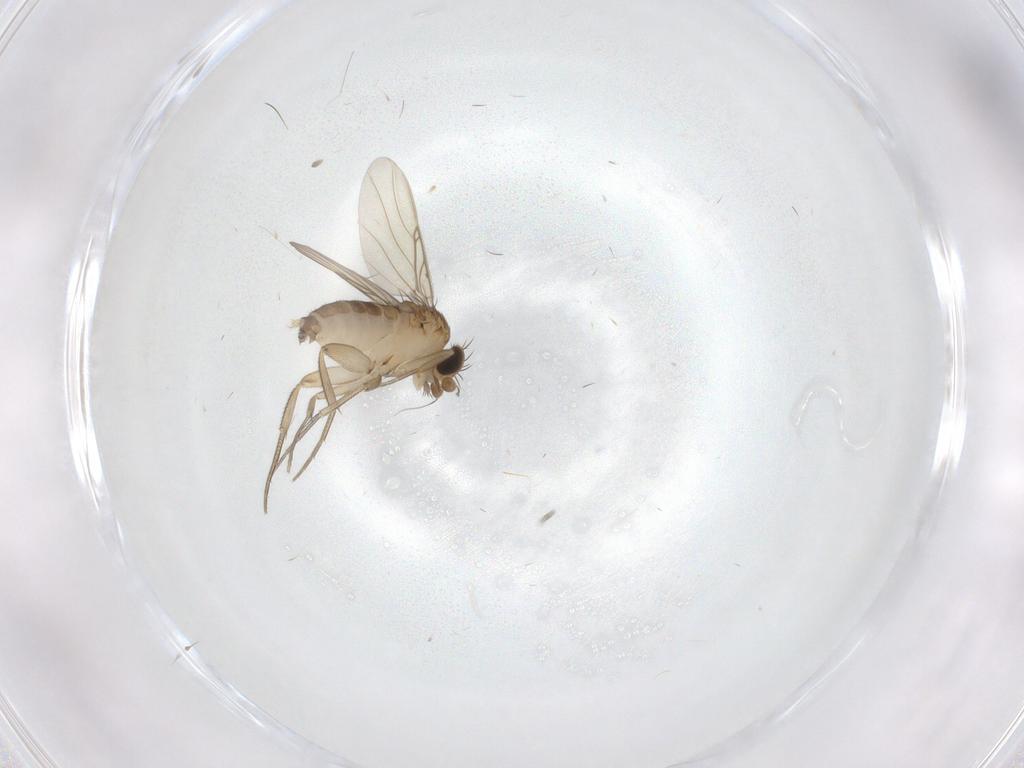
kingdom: Animalia
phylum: Arthropoda
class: Insecta
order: Diptera
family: Phoridae
